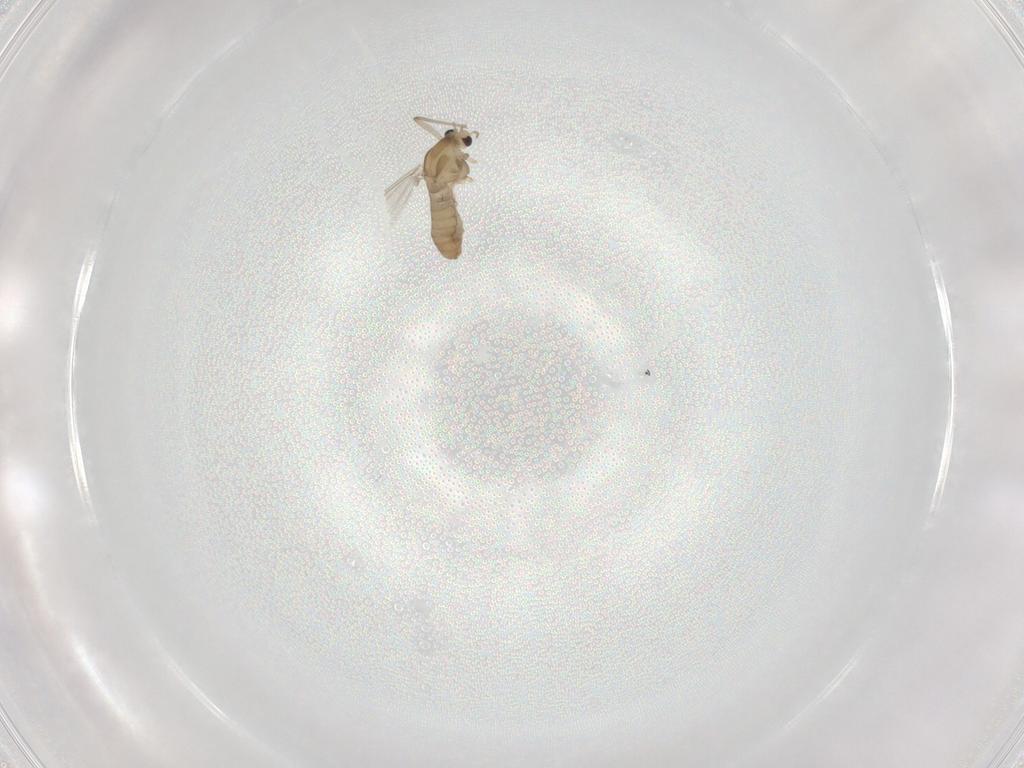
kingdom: Animalia
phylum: Arthropoda
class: Insecta
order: Diptera
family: Chironomidae
